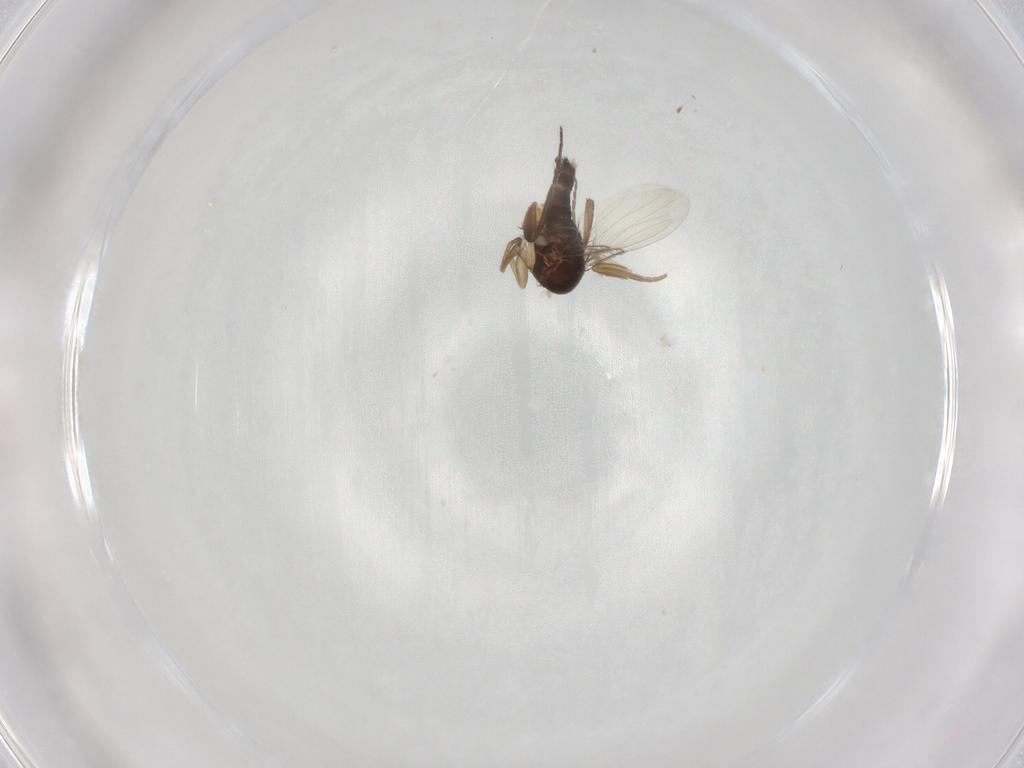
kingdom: Animalia
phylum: Arthropoda
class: Insecta
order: Diptera
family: Phoridae
